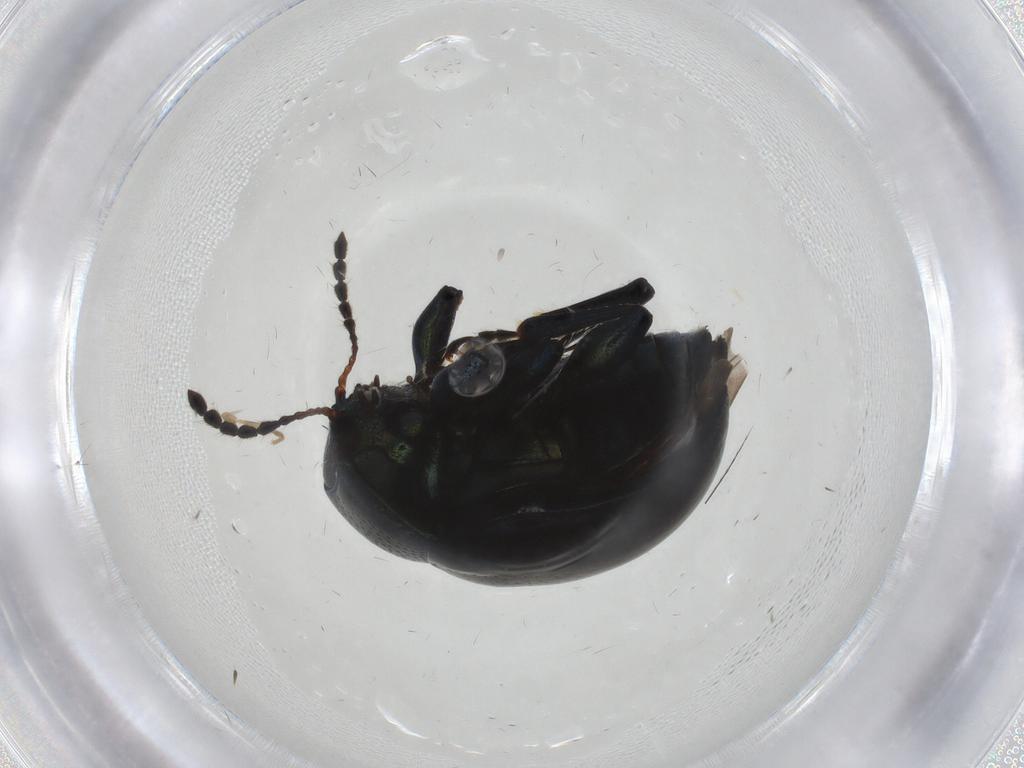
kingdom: Animalia
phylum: Arthropoda
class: Insecta
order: Coleoptera
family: Chrysomelidae
